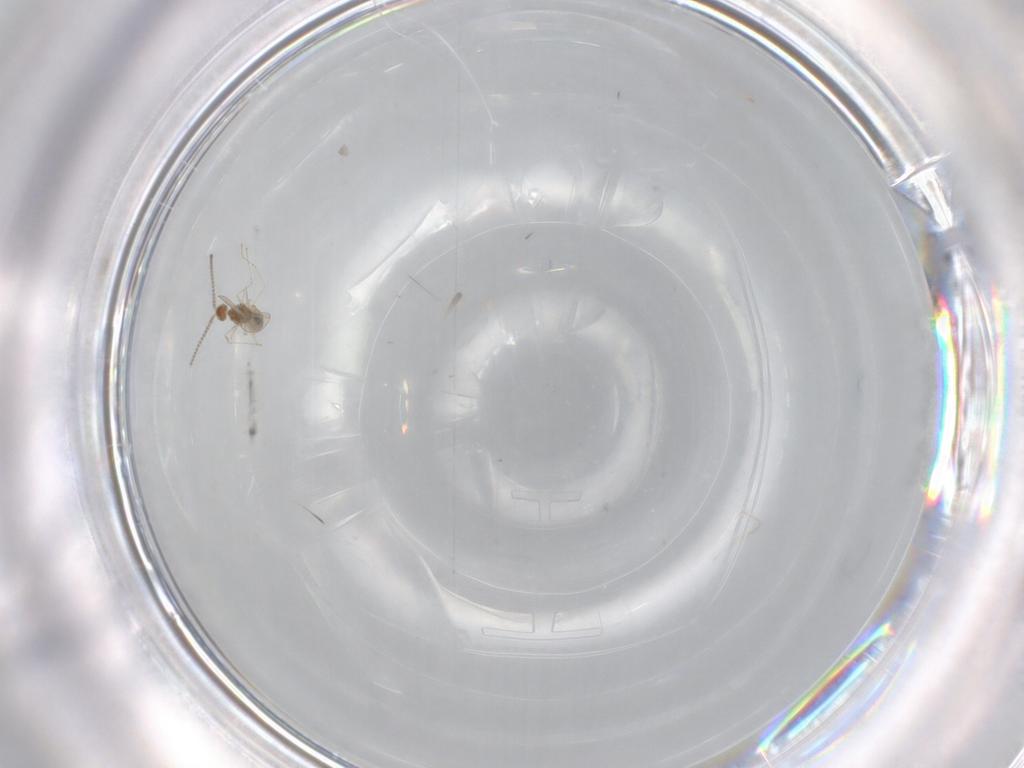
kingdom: Animalia
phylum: Arthropoda
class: Insecta
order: Diptera
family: Cecidomyiidae
